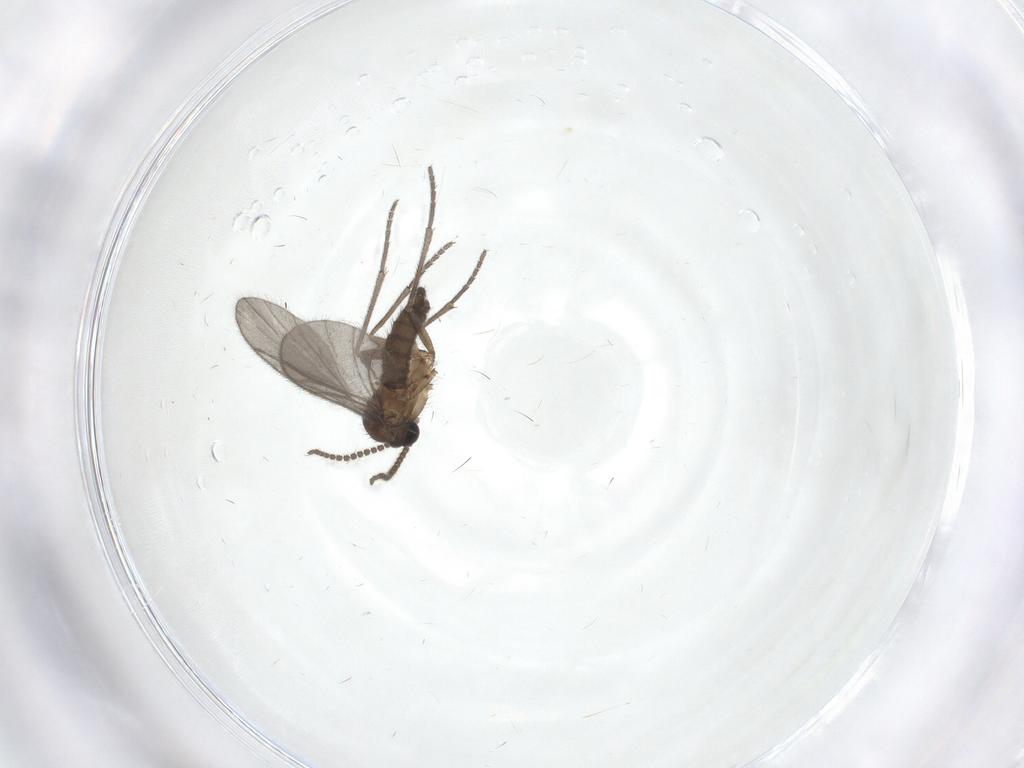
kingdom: Animalia
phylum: Arthropoda
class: Insecta
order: Diptera
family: Sciaridae
